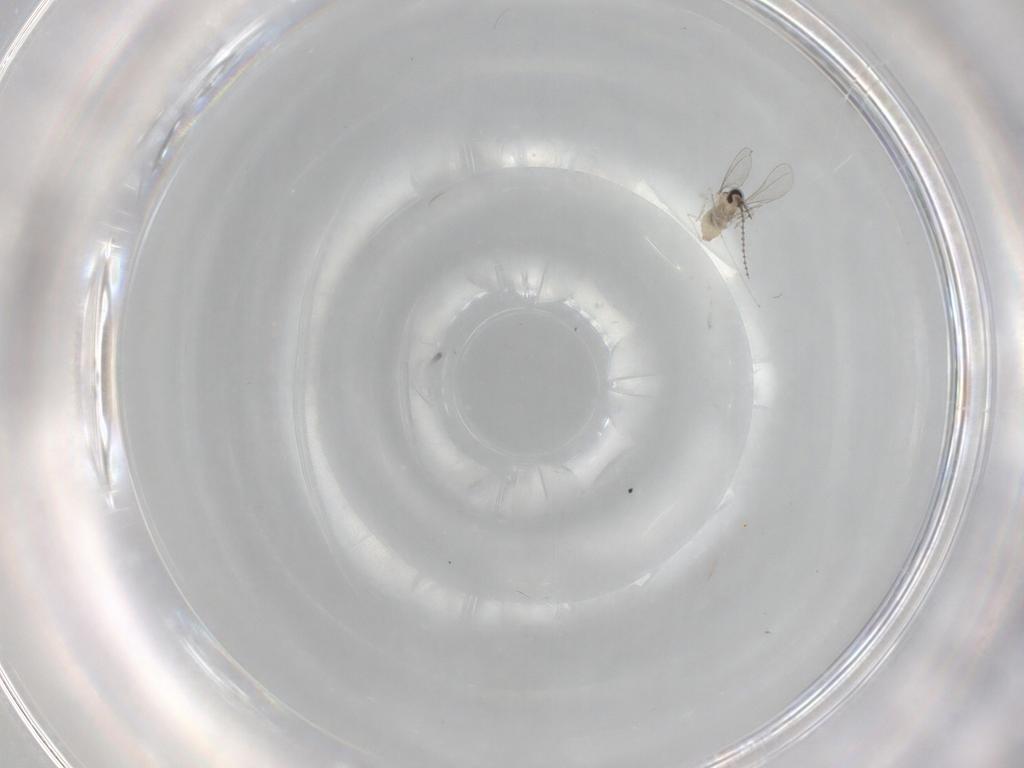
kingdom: Animalia
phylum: Arthropoda
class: Insecta
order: Diptera
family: Cecidomyiidae
